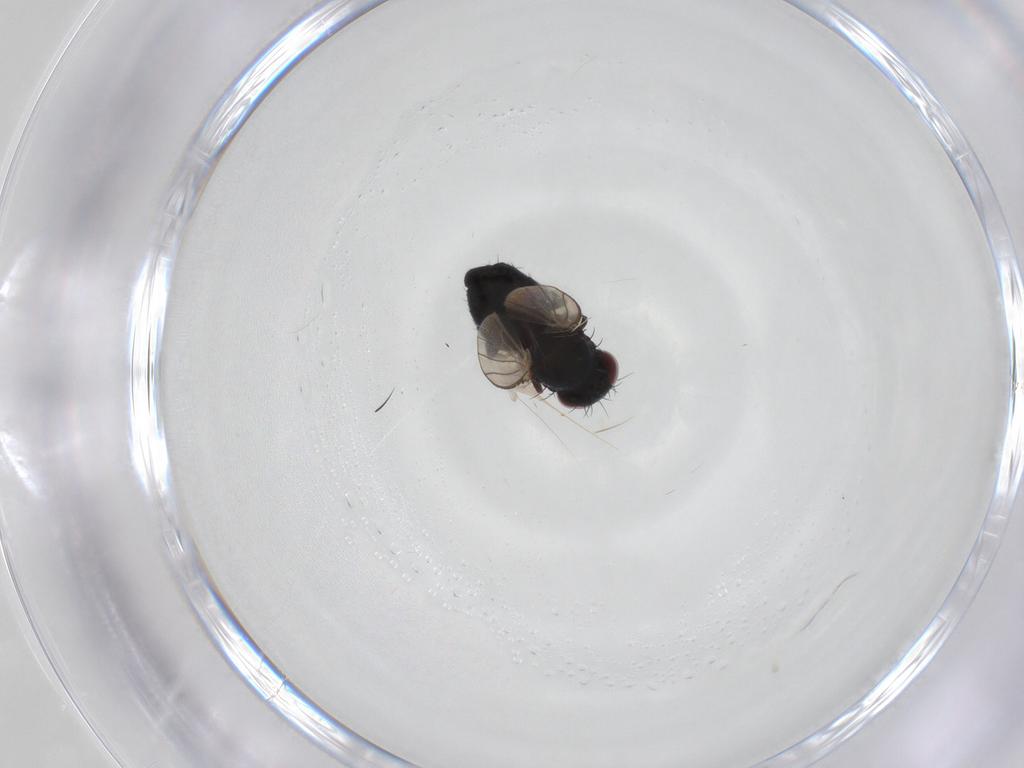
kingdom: Animalia
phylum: Arthropoda
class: Insecta
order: Diptera
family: Carnidae
